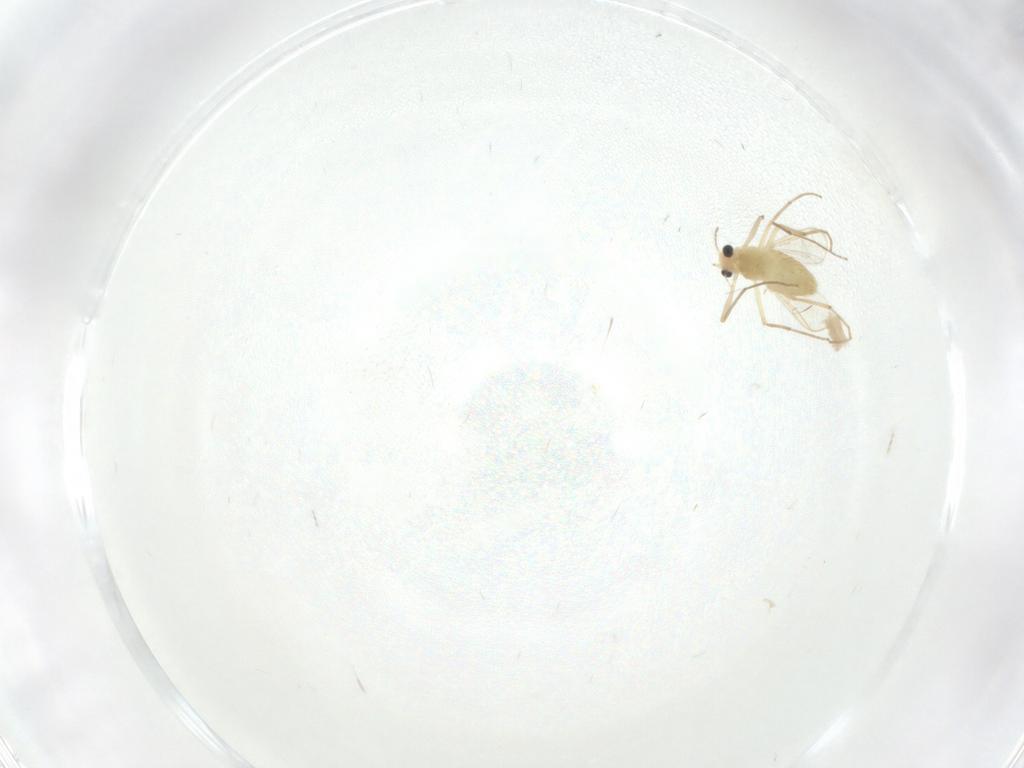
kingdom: Animalia
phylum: Arthropoda
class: Insecta
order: Diptera
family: Chironomidae
